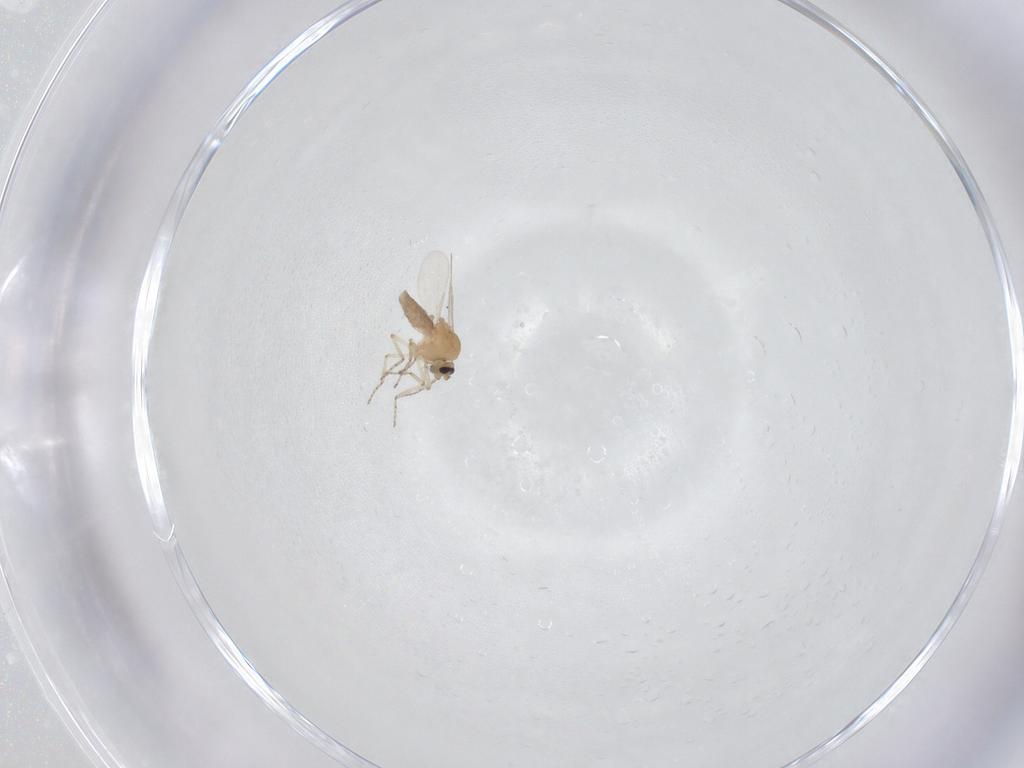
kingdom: Animalia
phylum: Arthropoda
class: Insecta
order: Diptera
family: Ceratopogonidae
